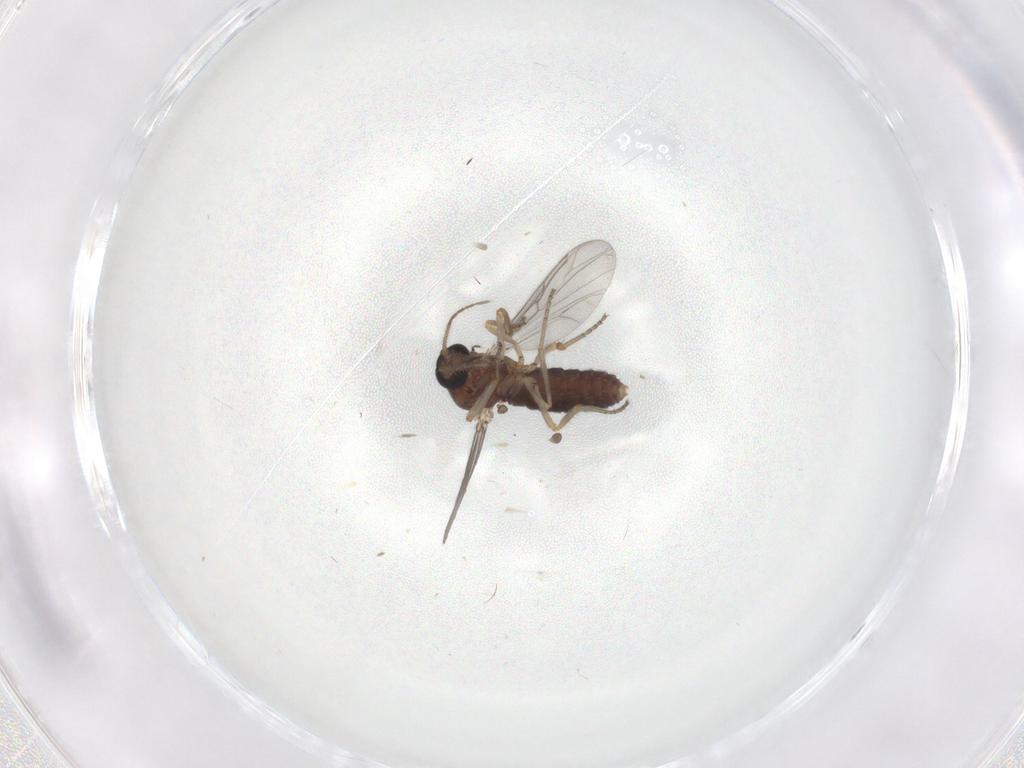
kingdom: Animalia
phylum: Arthropoda
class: Insecta
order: Diptera
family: Ceratopogonidae
